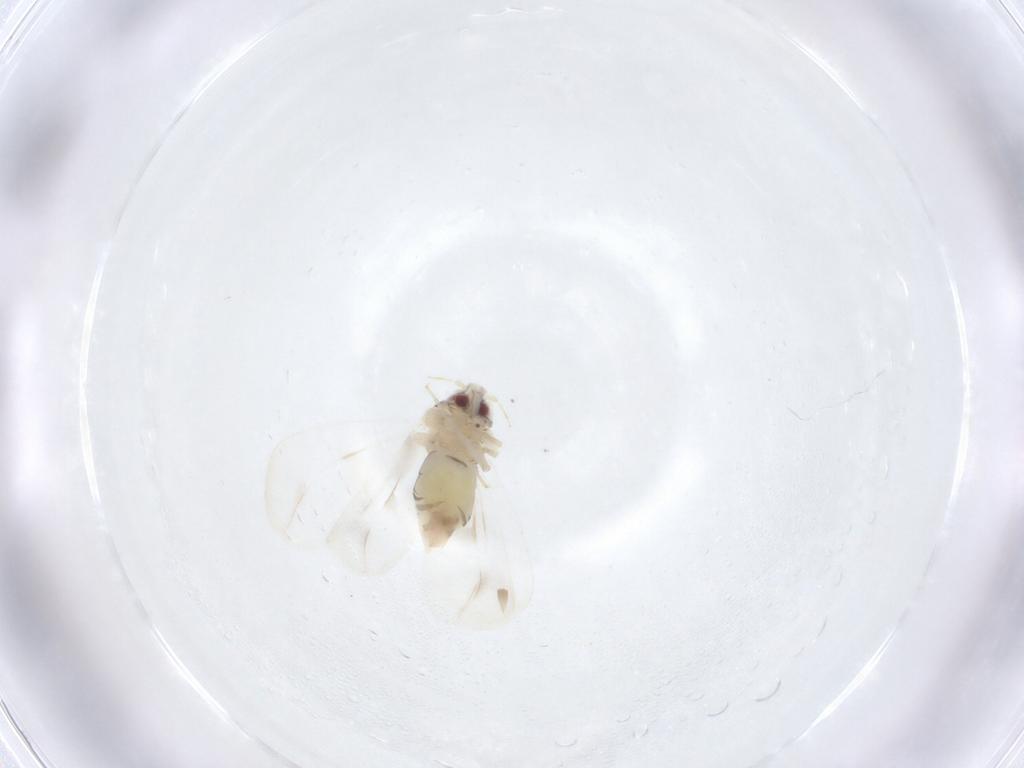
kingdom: Animalia
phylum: Arthropoda
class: Insecta
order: Hemiptera
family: Aleyrodidae
